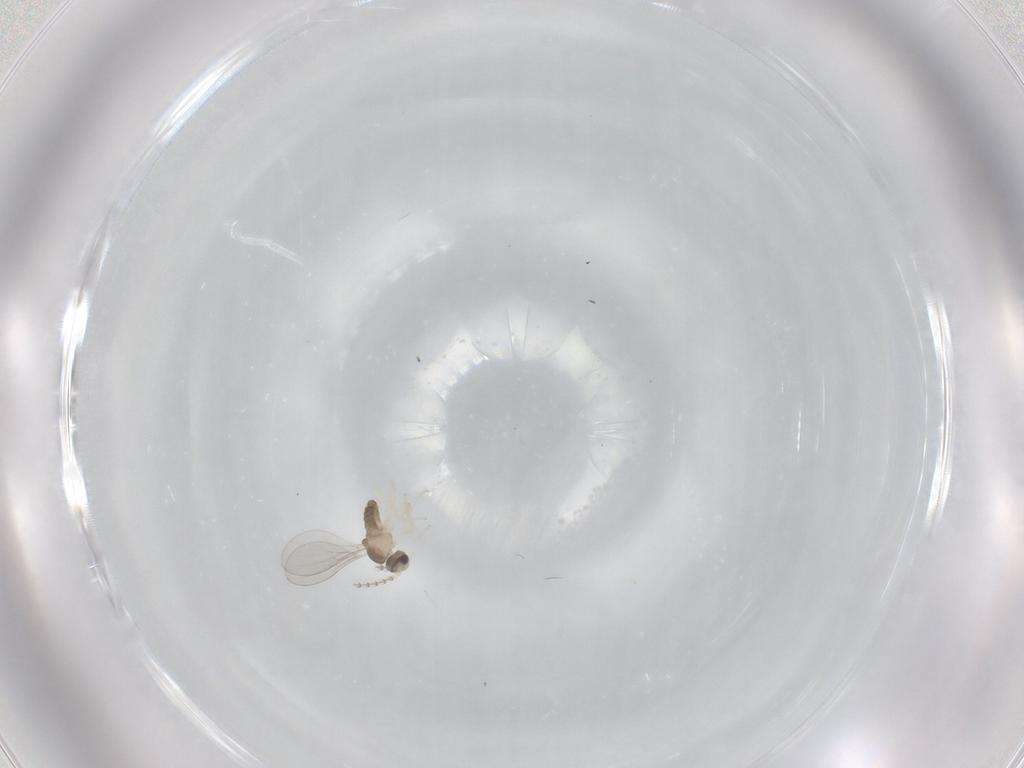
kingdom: Animalia
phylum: Arthropoda
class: Insecta
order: Diptera
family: Cecidomyiidae
